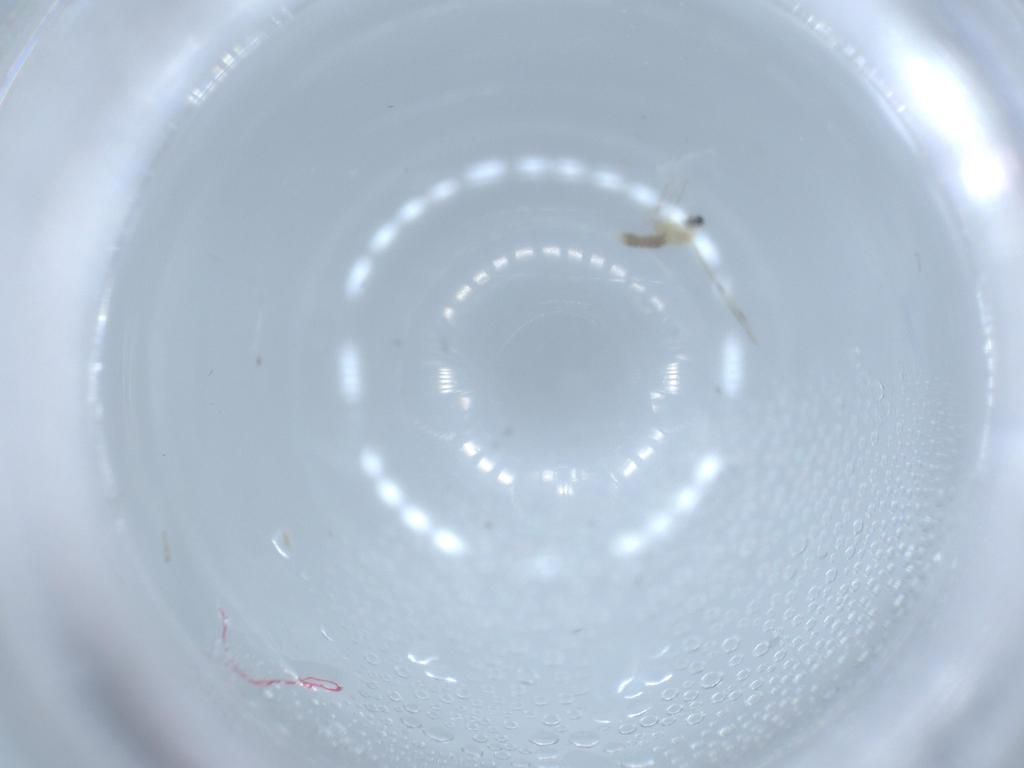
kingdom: Animalia
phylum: Arthropoda
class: Insecta
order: Diptera
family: Cecidomyiidae
